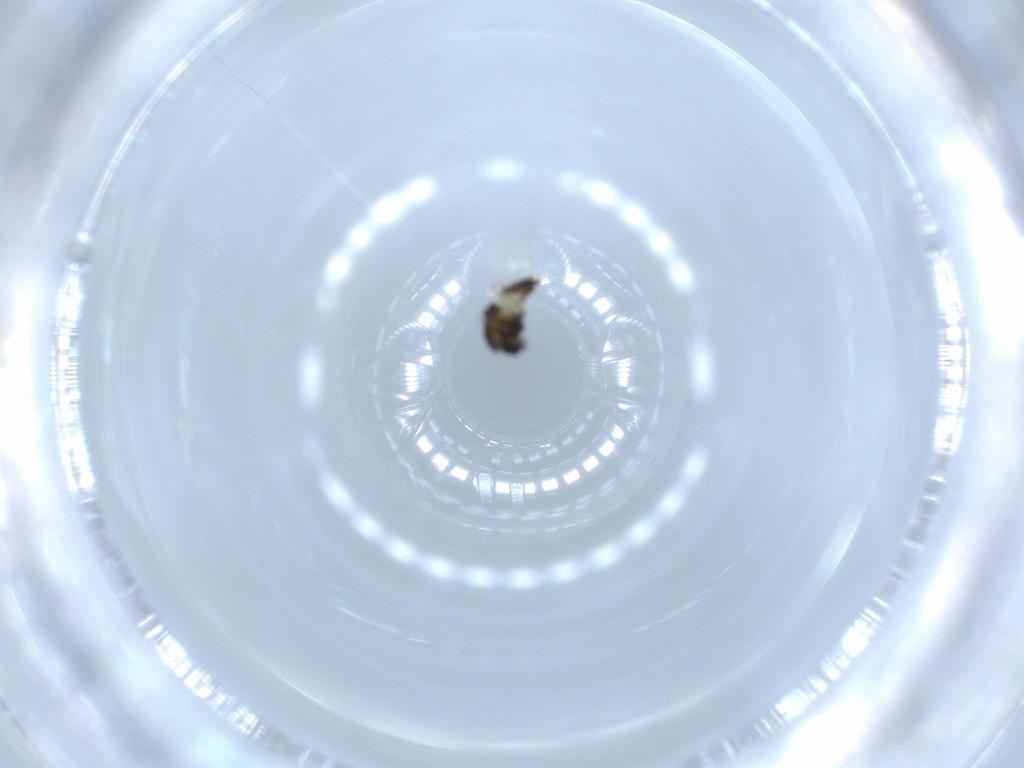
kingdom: Animalia
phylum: Arthropoda
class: Insecta
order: Diptera
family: Chironomidae
